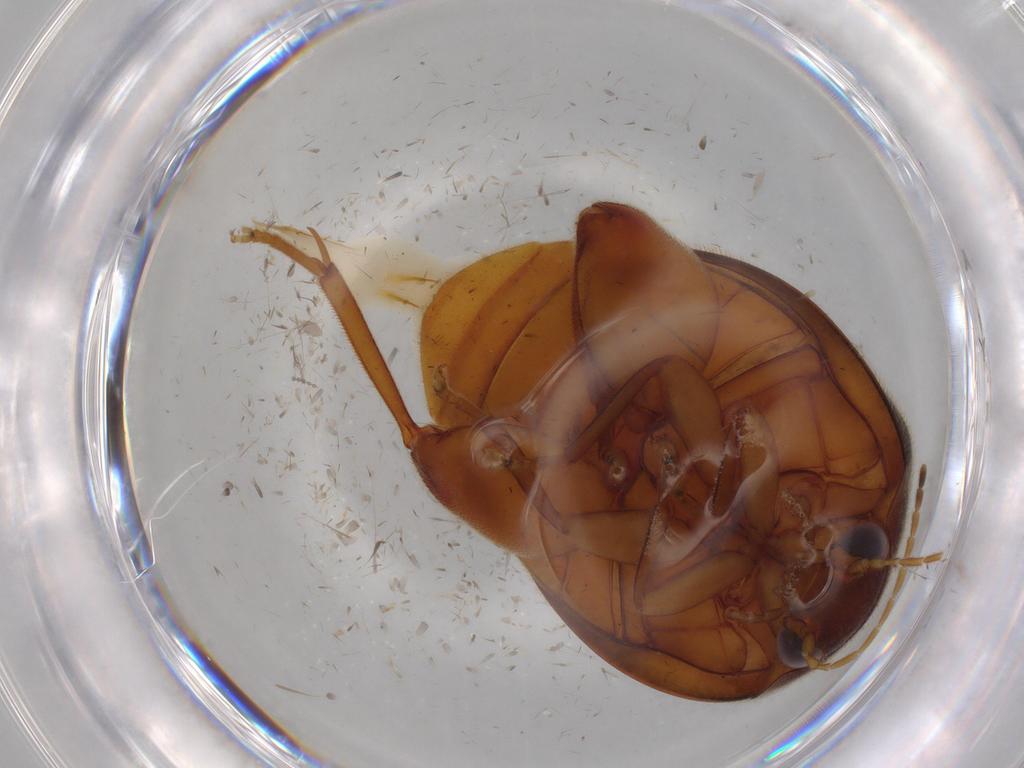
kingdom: Animalia
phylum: Arthropoda
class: Insecta
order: Coleoptera
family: Scirtidae
